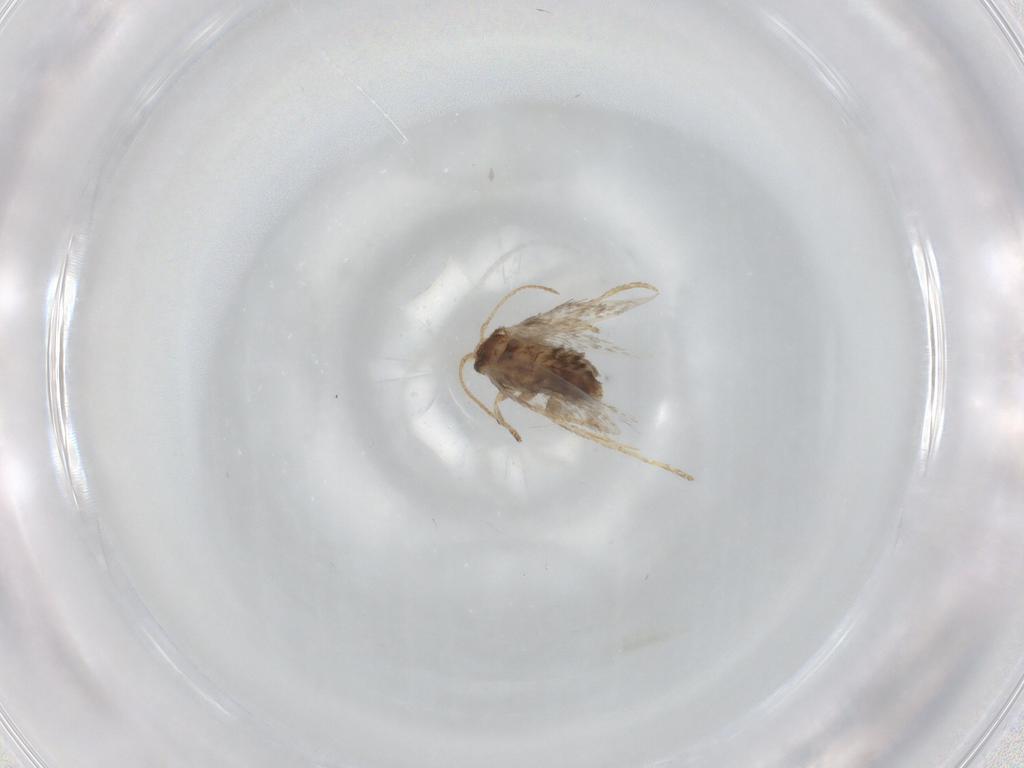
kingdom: Animalia
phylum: Arthropoda
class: Insecta
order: Lepidoptera
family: Nepticulidae
